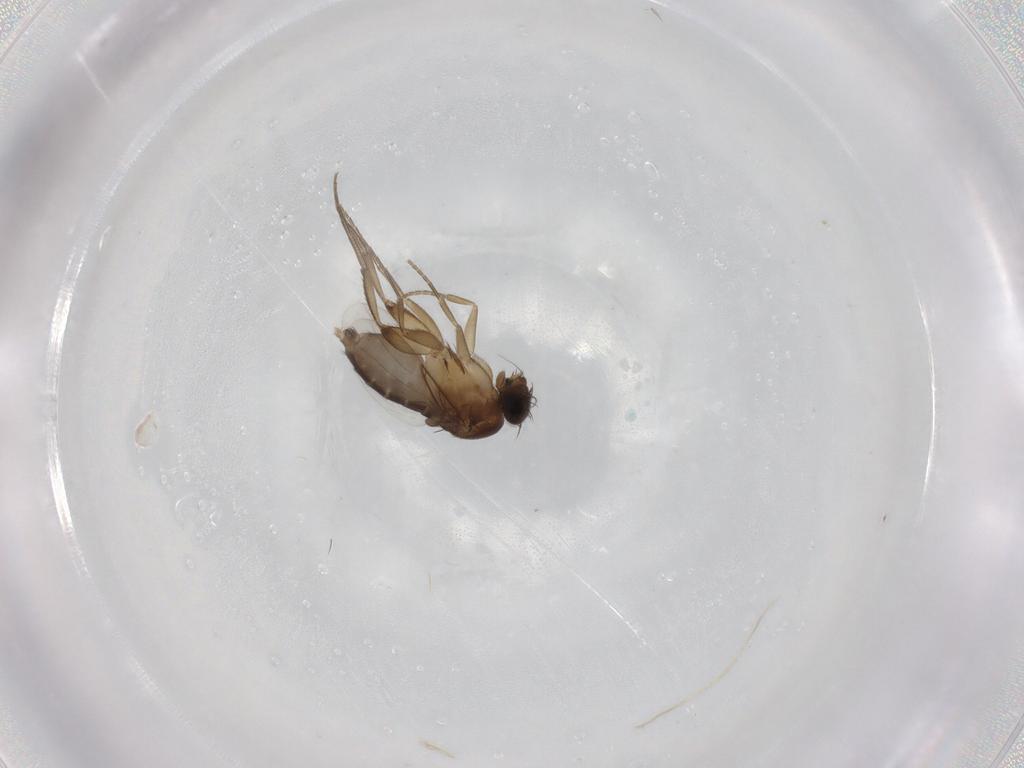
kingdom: Animalia
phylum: Arthropoda
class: Insecta
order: Diptera
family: Phoridae
